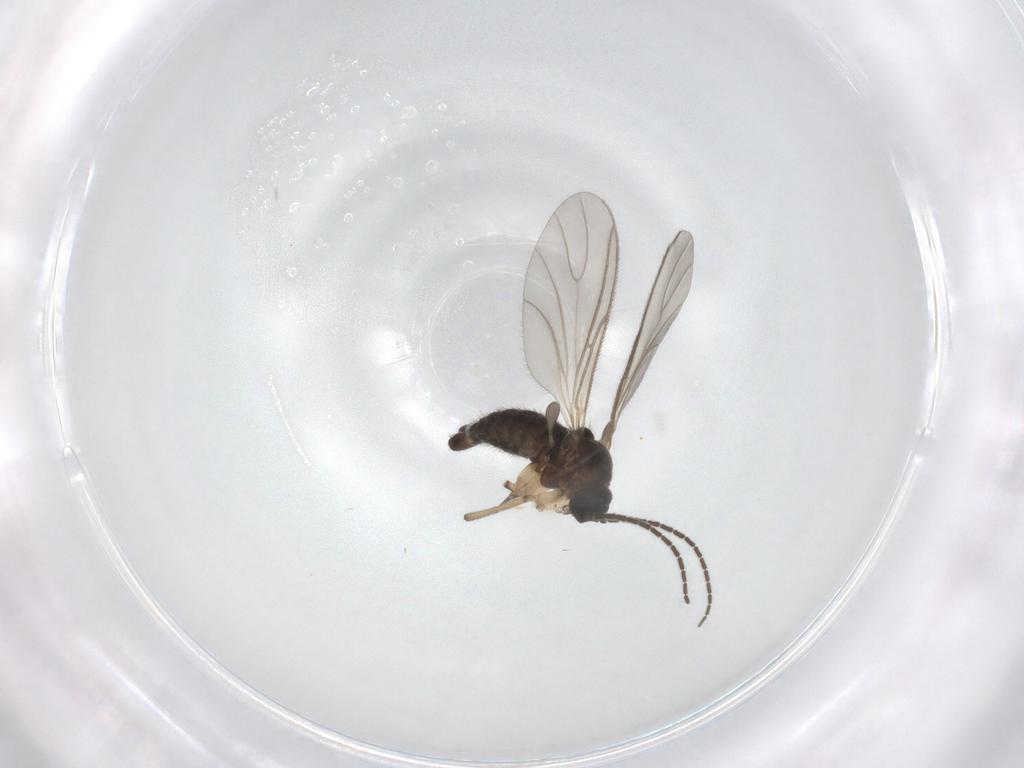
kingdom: Animalia
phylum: Arthropoda
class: Insecta
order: Diptera
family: Sciaridae
